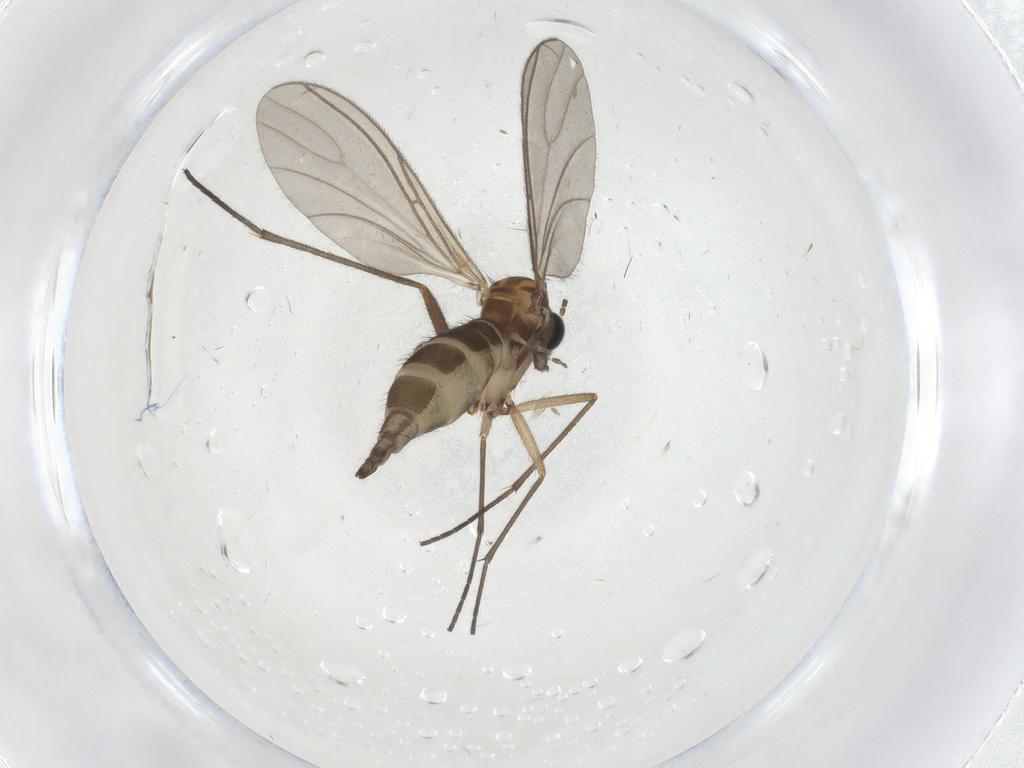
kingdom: Animalia
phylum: Arthropoda
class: Insecta
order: Diptera
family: Sciaridae
